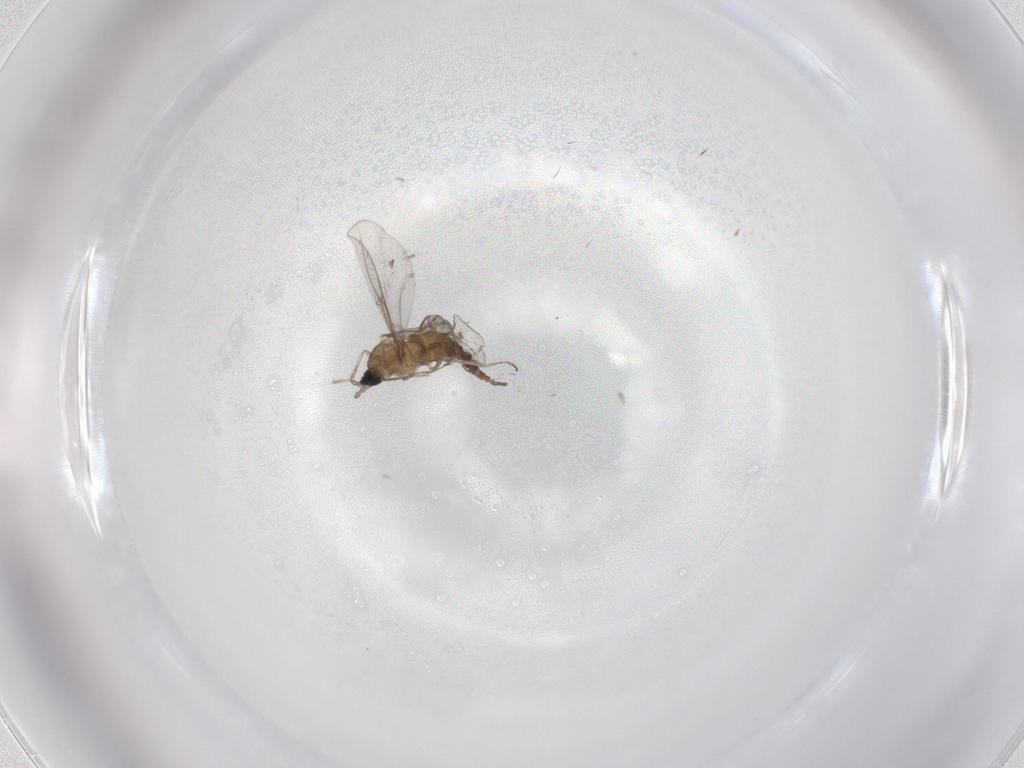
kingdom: Animalia
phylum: Arthropoda
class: Insecta
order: Diptera
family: Cecidomyiidae
